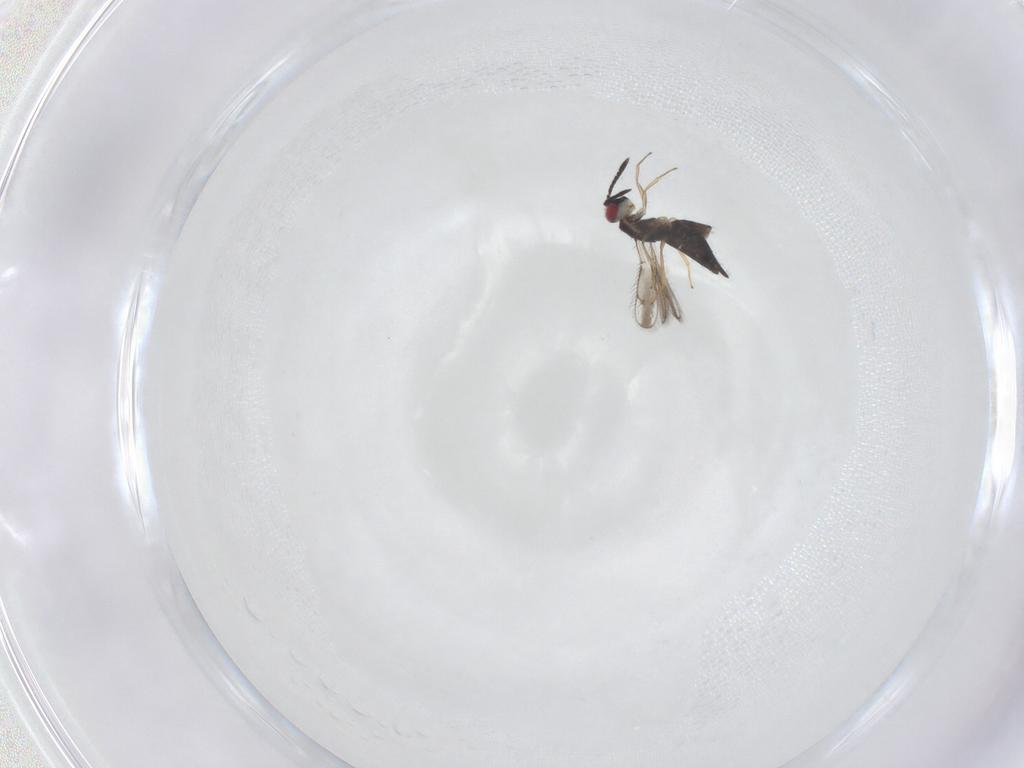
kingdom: Animalia
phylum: Arthropoda
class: Insecta
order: Hymenoptera
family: Pteromalidae
